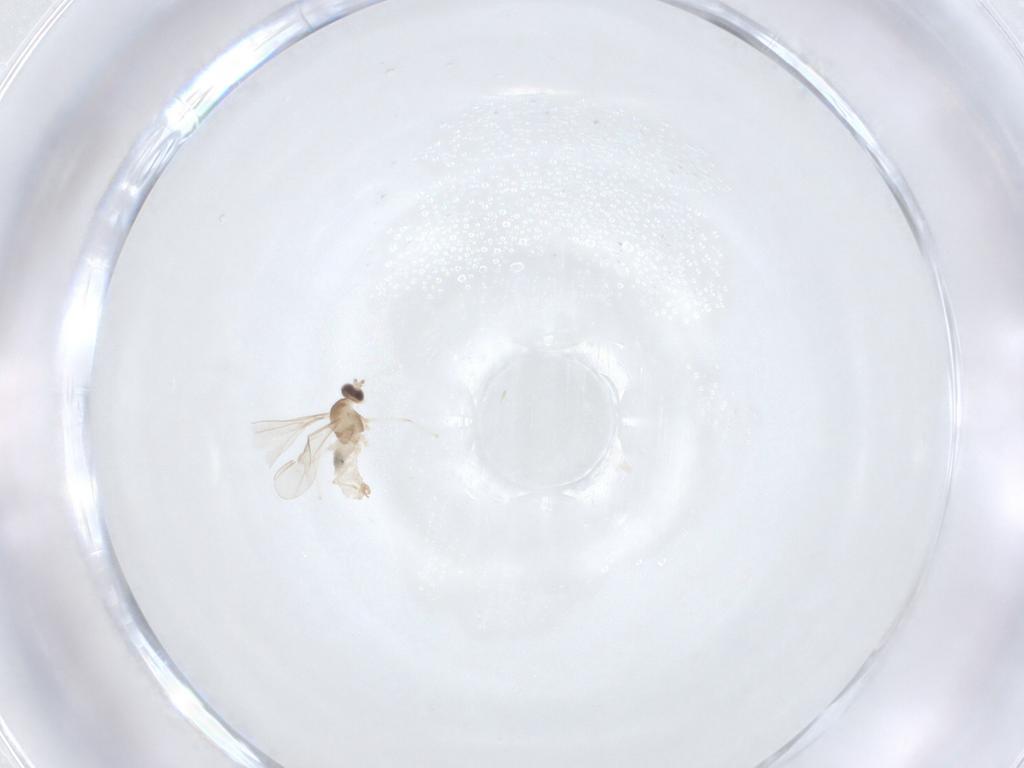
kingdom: Animalia
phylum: Arthropoda
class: Insecta
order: Diptera
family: Cecidomyiidae
